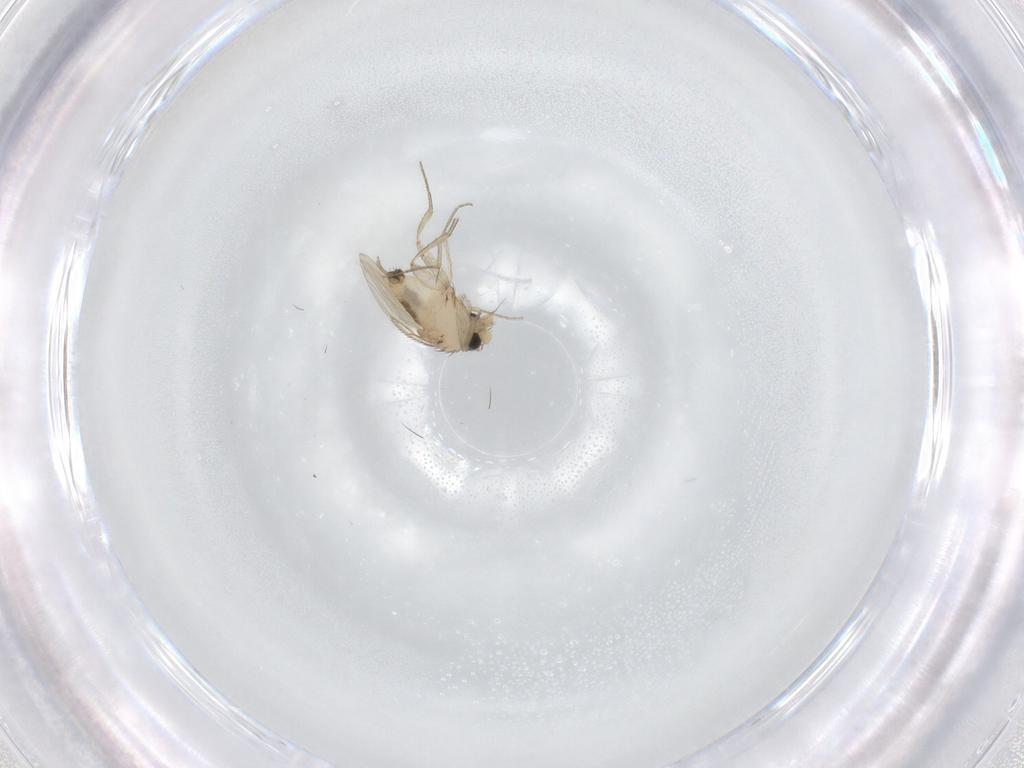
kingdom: Animalia
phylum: Arthropoda
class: Insecta
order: Diptera
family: Phoridae
